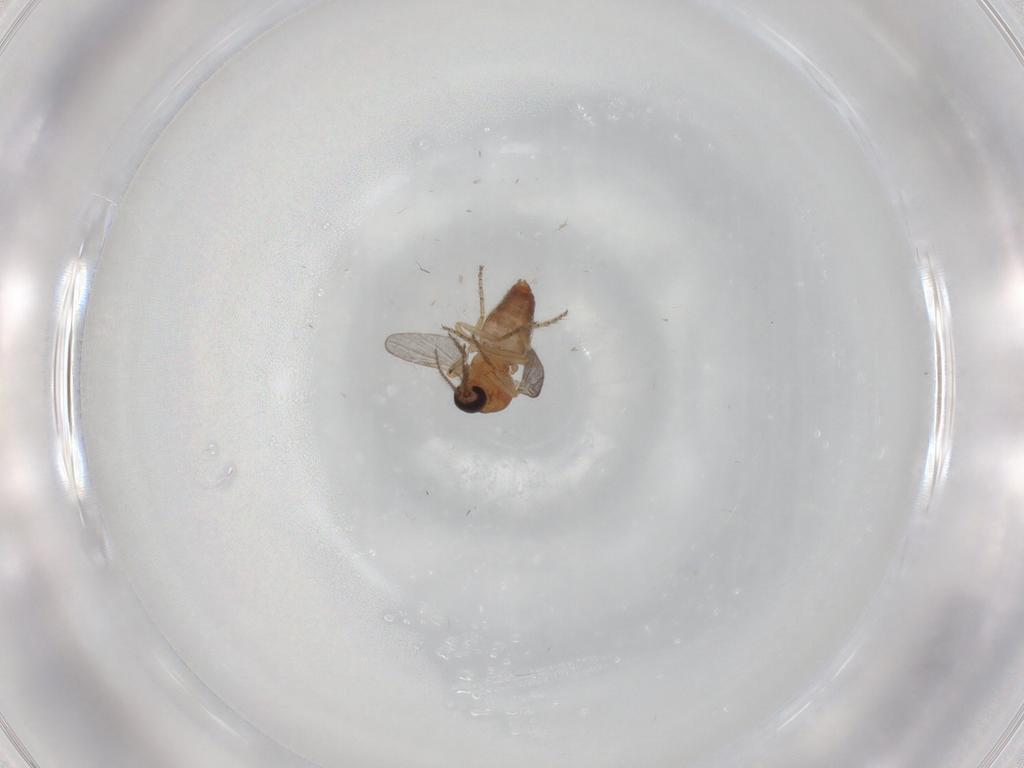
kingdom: Animalia
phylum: Arthropoda
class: Insecta
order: Diptera
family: Ceratopogonidae
